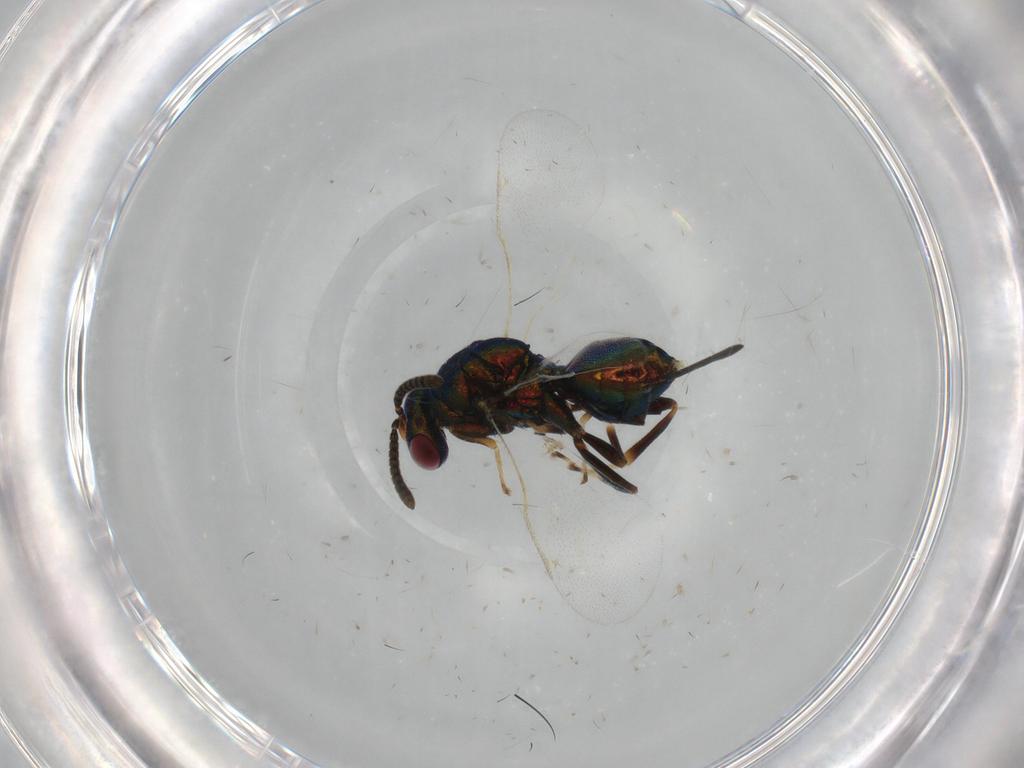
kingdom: Animalia
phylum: Arthropoda
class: Insecta
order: Hymenoptera
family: Torymidae
